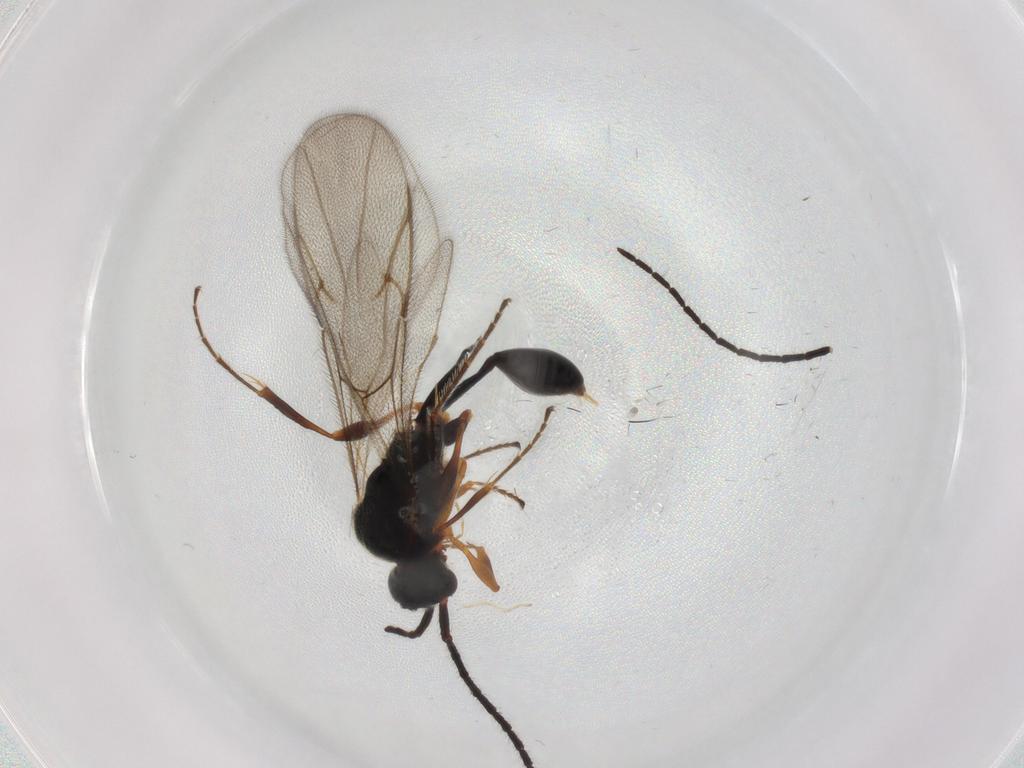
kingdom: Animalia
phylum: Arthropoda
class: Insecta
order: Hymenoptera
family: Diapriidae
